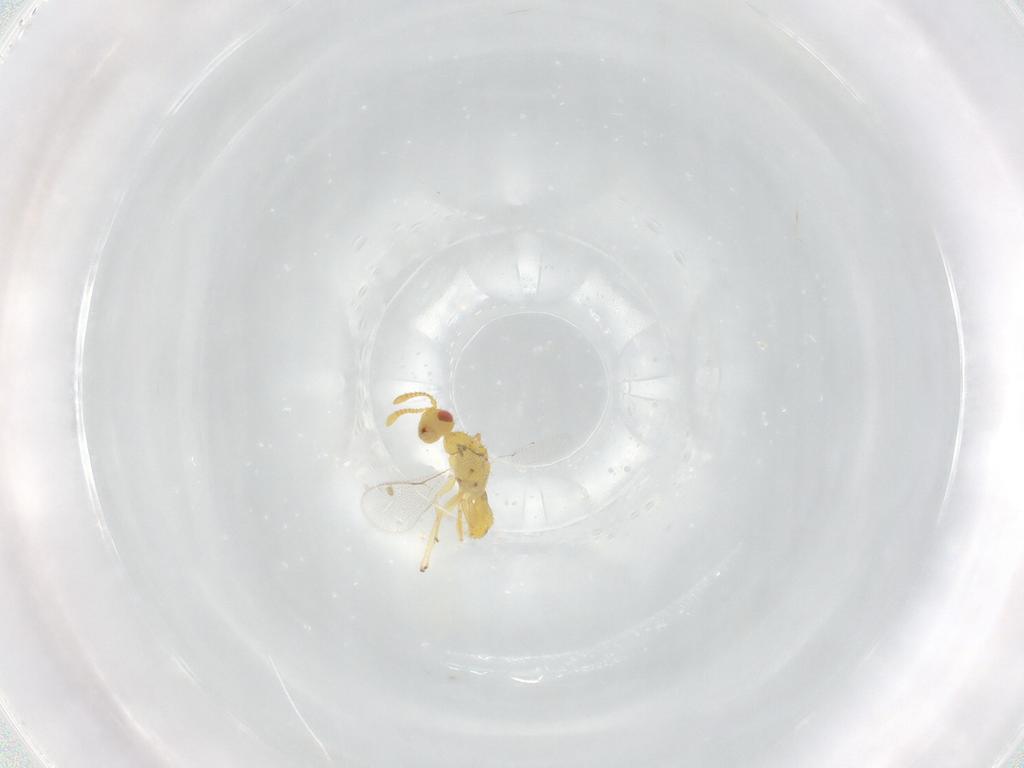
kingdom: Animalia
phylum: Arthropoda
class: Insecta
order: Hymenoptera
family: Megastigmidae
